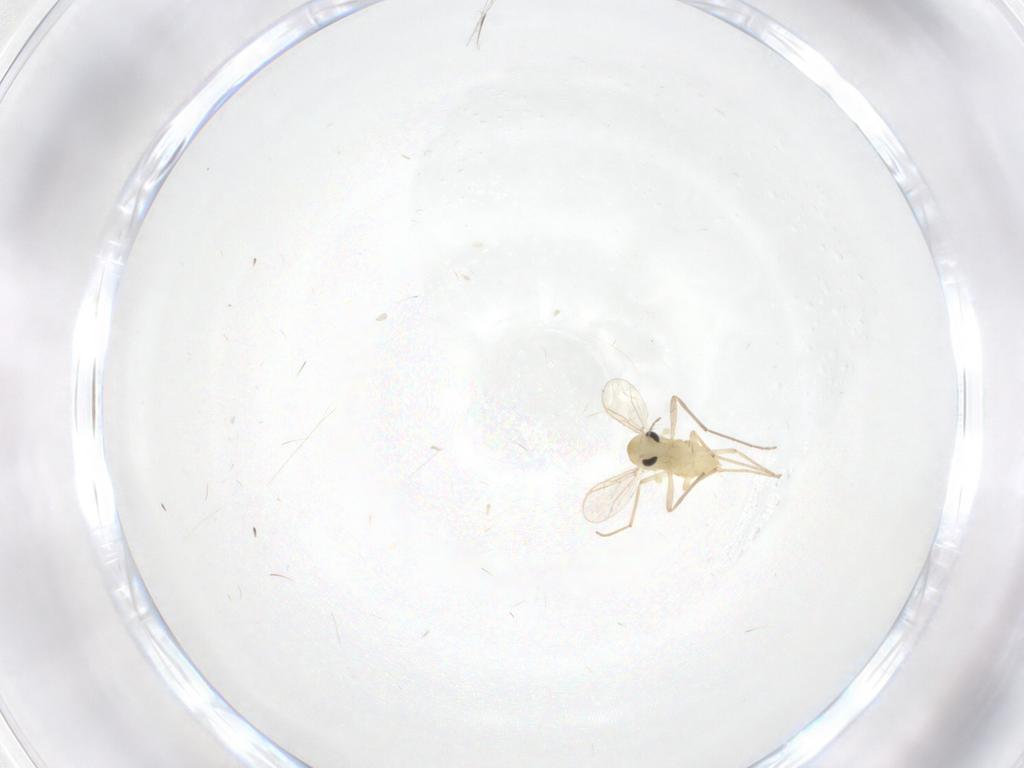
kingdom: Animalia
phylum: Arthropoda
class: Insecta
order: Diptera
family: Chironomidae
